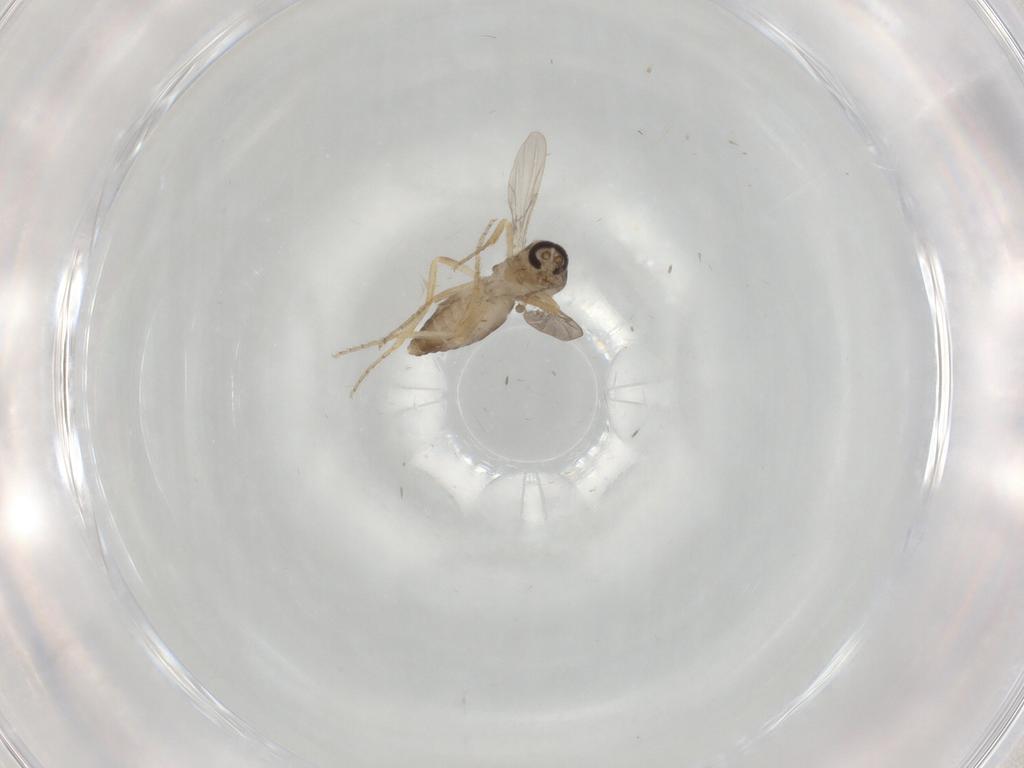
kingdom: Animalia
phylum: Arthropoda
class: Insecta
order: Diptera
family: Ceratopogonidae
